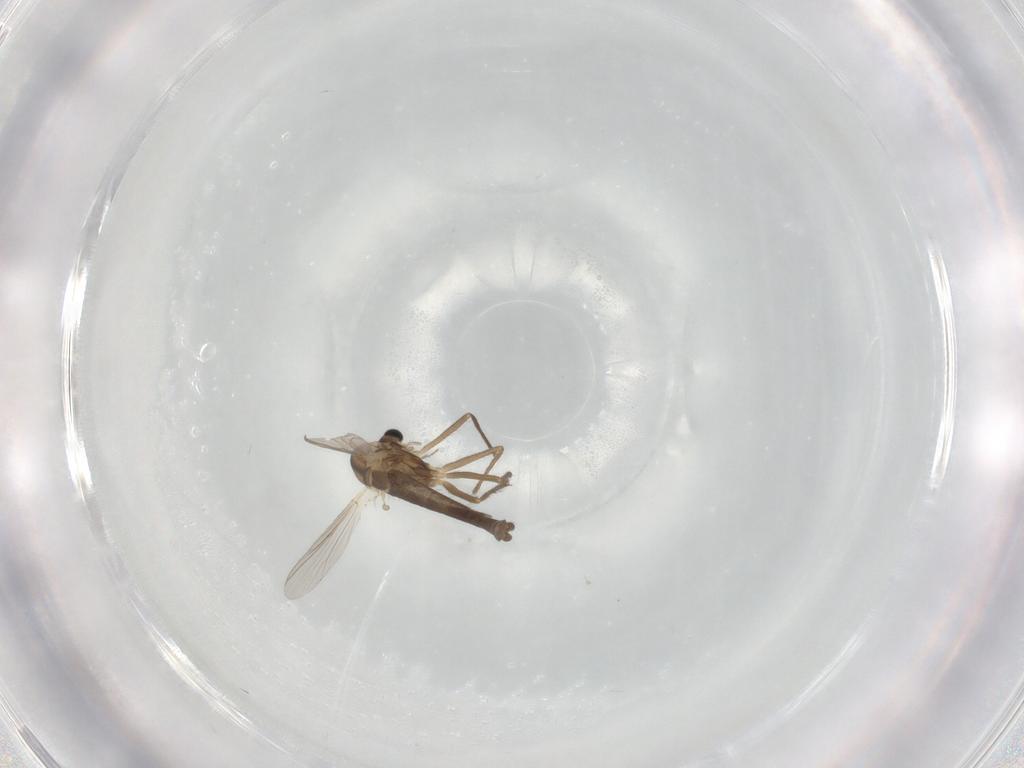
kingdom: Animalia
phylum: Arthropoda
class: Insecta
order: Diptera
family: Chironomidae
